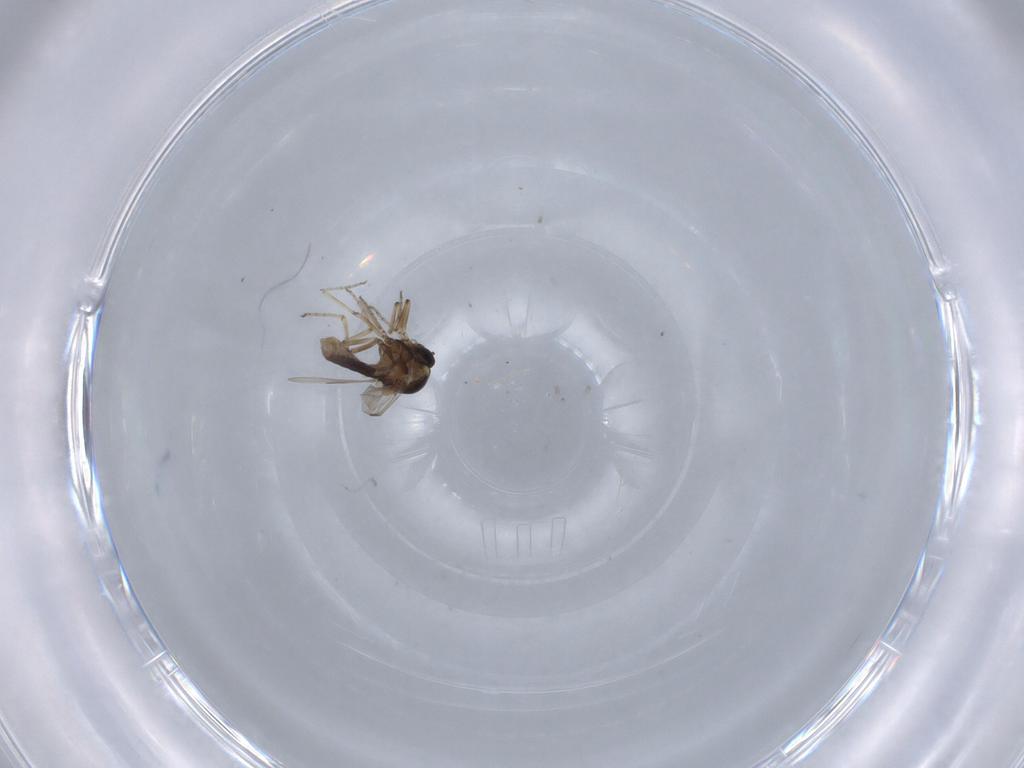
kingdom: Animalia
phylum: Arthropoda
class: Insecta
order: Diptera
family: Ceratopogonidae
